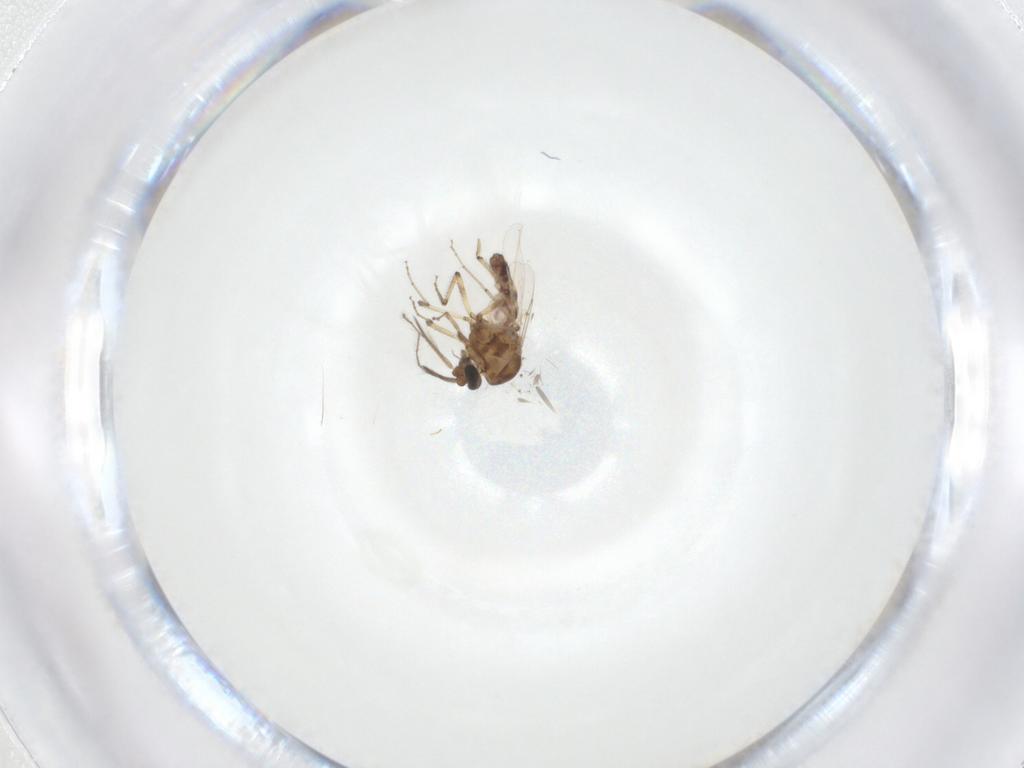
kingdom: Animalia
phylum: Arthropoda
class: Insecta
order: Diptera
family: Ceratopogonidae
